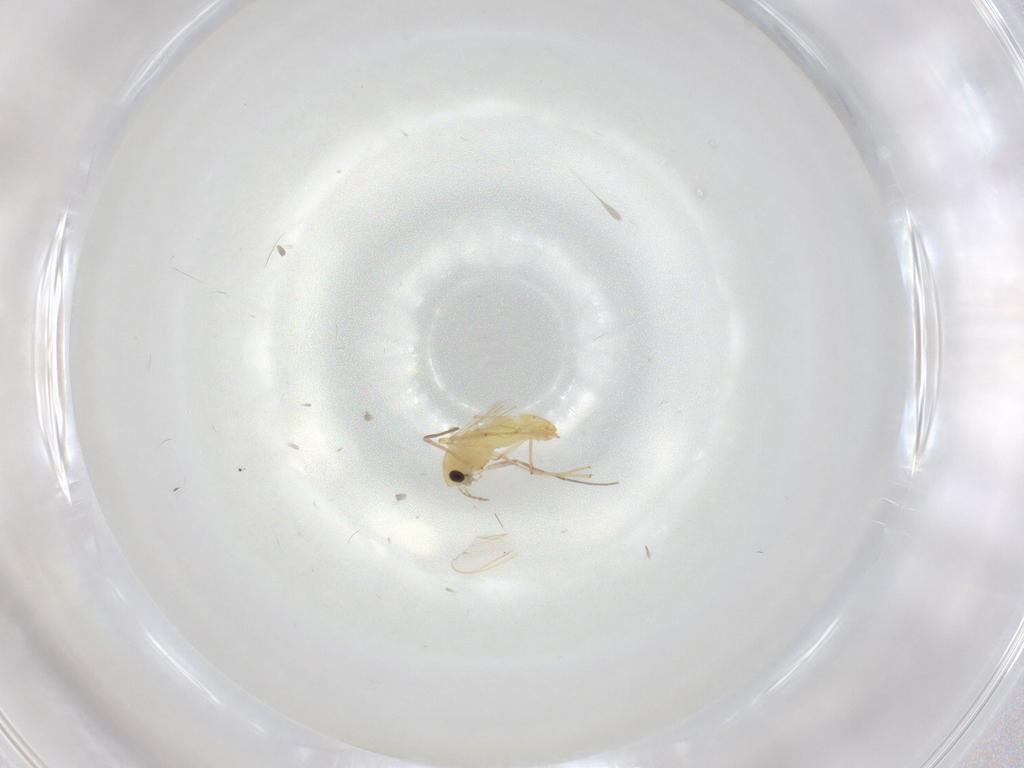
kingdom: Animalia
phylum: Arthropoda
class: Insecta
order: Diptera
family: Chironomidae
